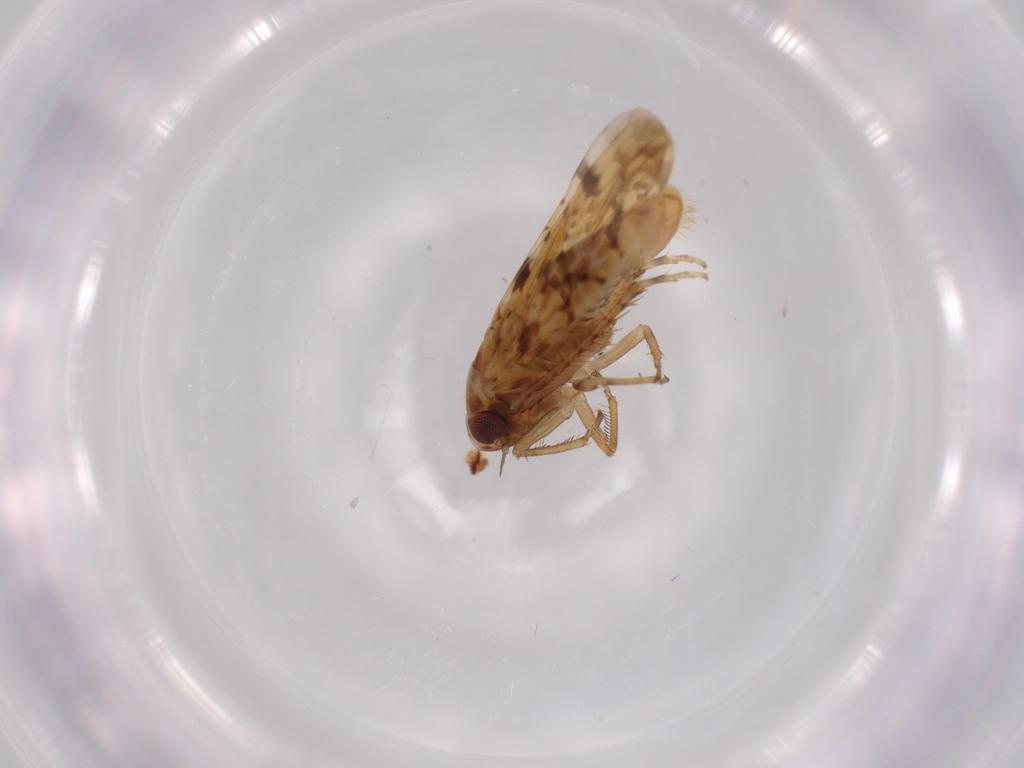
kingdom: Animalia
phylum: Arthropoda
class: Insecta
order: Hemiptera
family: Cicadellidae
